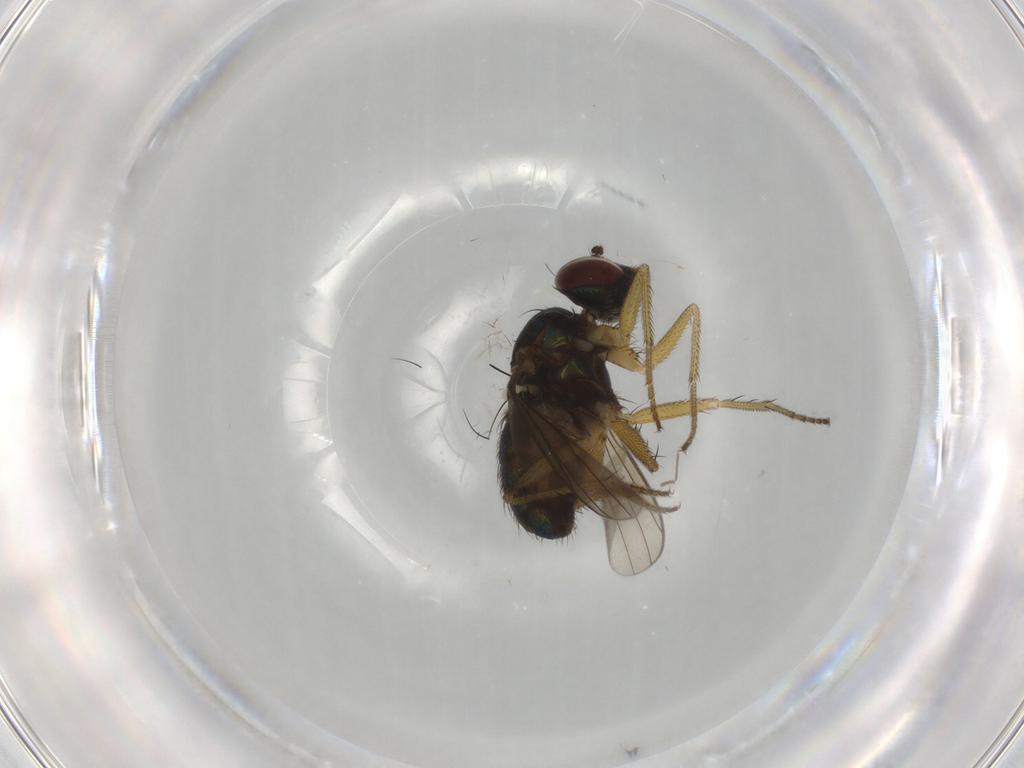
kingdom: Animalia
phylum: Arthropoda
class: Insecta
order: Diptera
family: Dolichopodidae
